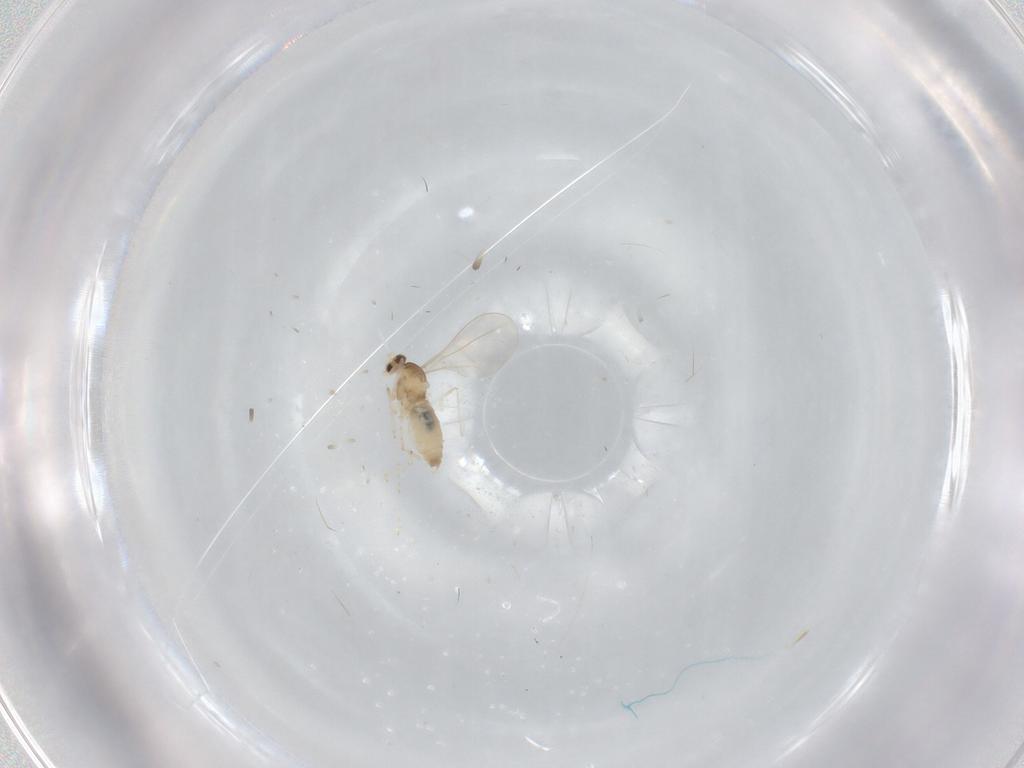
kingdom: Animalia
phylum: Arthropoda
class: Insecta
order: Diptera
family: Cecidomyiidae
